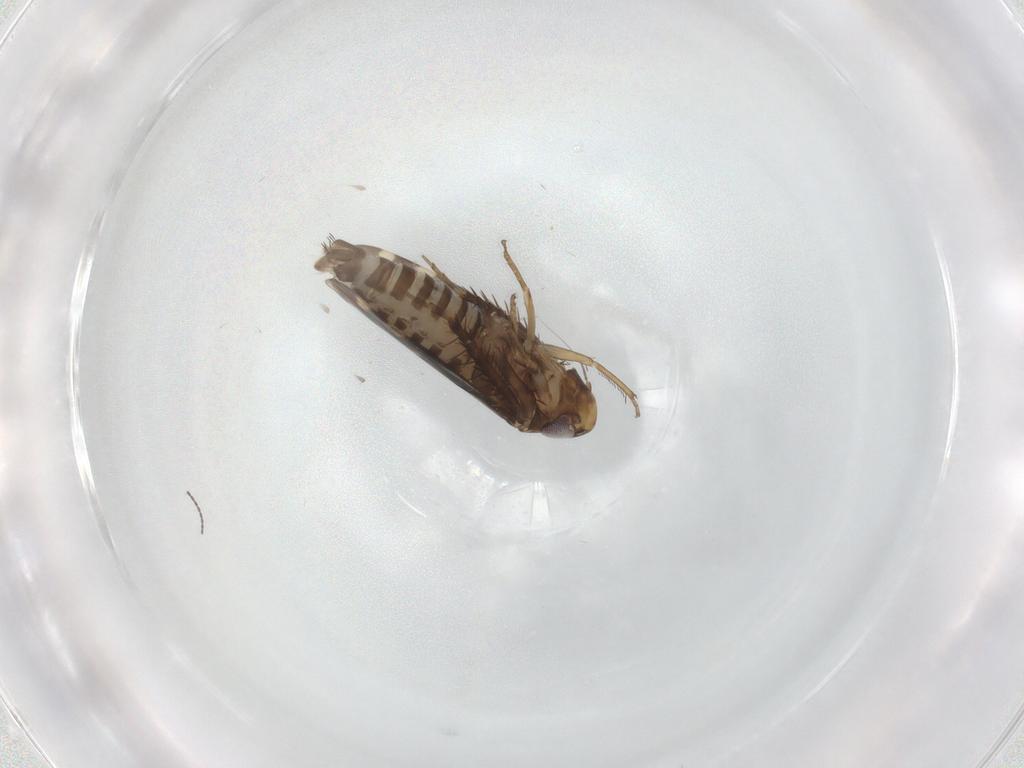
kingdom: Animalia
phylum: Arthropoda
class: Insecta
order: Hemiptera
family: Cicadellidae
